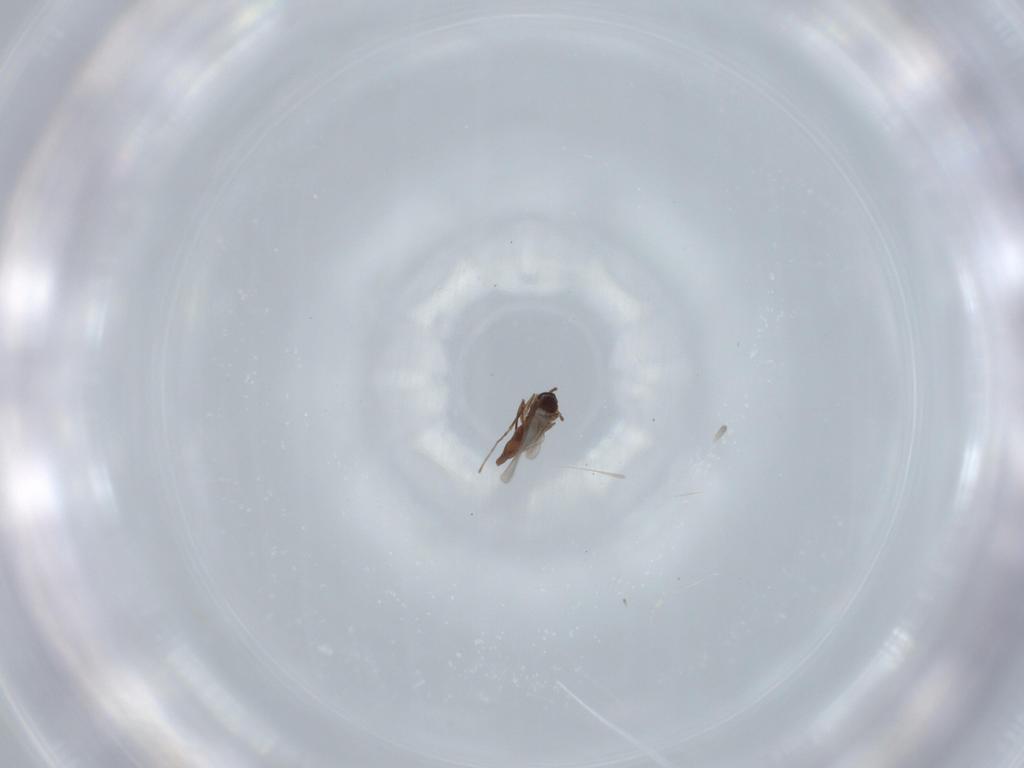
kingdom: Animalia
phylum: Arthropoda
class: Insecta
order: Diptera
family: Cecidomyiidae
